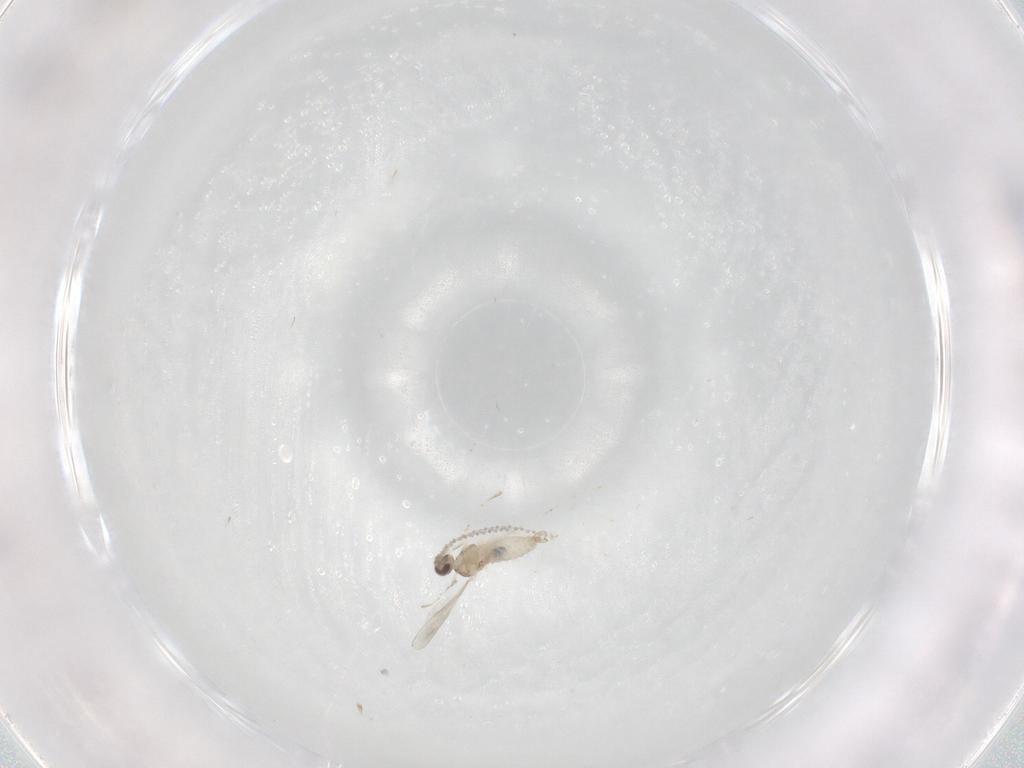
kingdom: Animalia
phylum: Arthropoda
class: Insecta
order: Diptera
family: Cecidomyiidae
